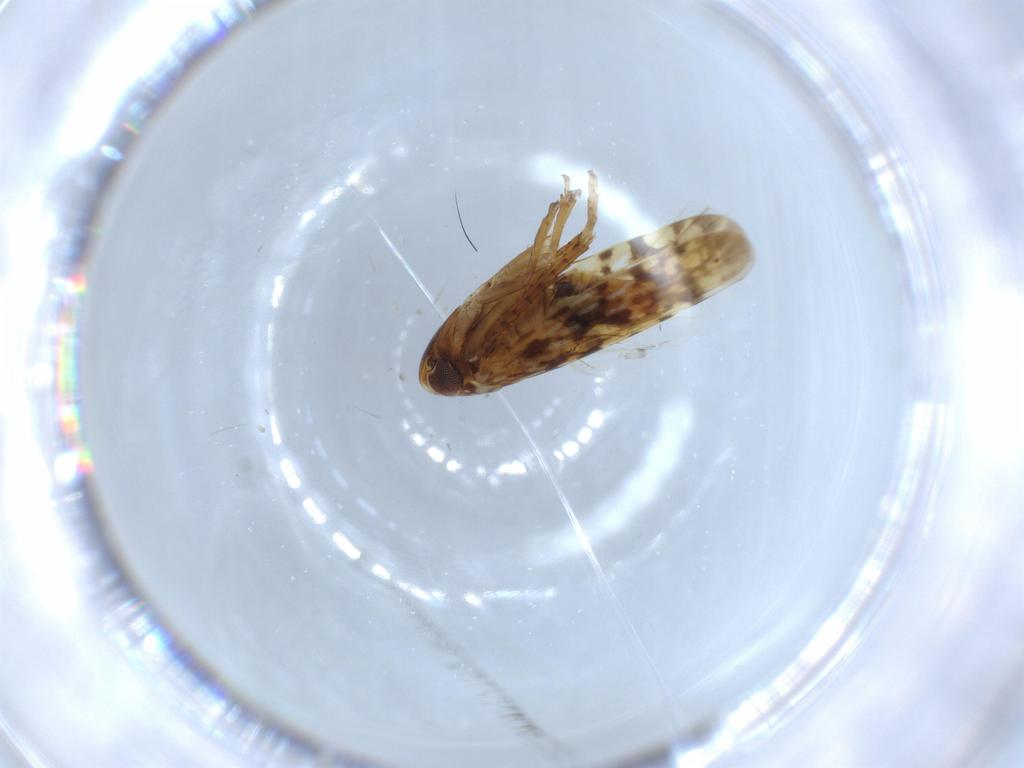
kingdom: Animalia
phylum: Arthropoda
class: Insecta
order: Hemiptera
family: Cicadellidae
